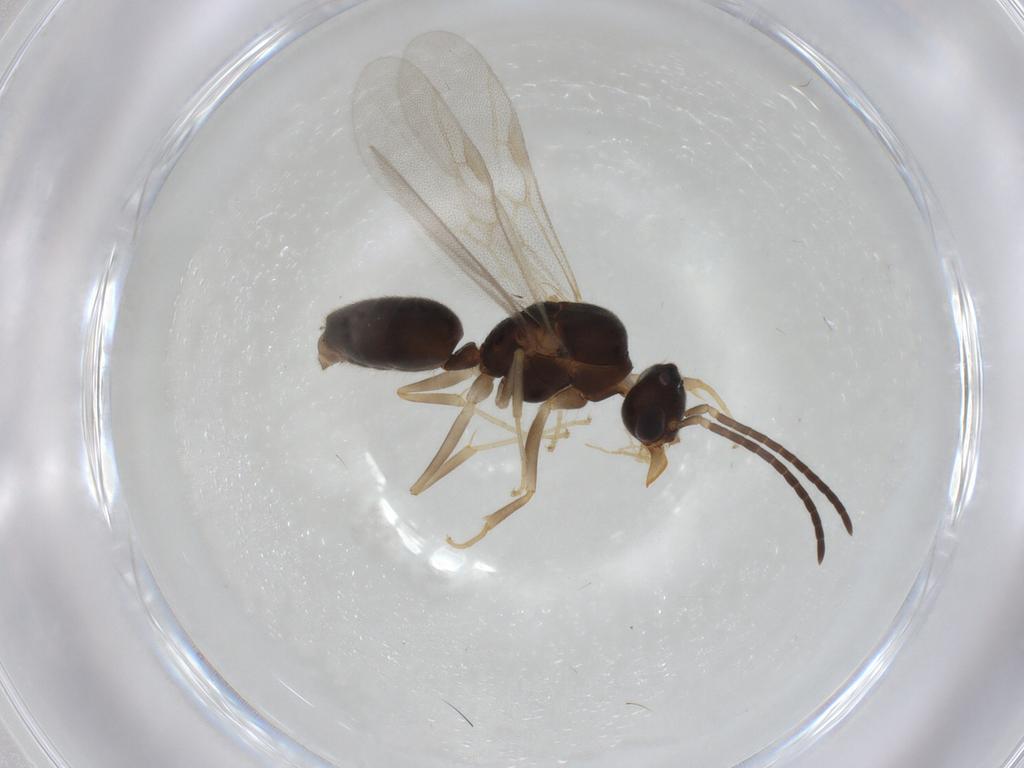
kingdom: Animalia
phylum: Arthropoda
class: Insecta
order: Hymenoptera
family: Formicidae
